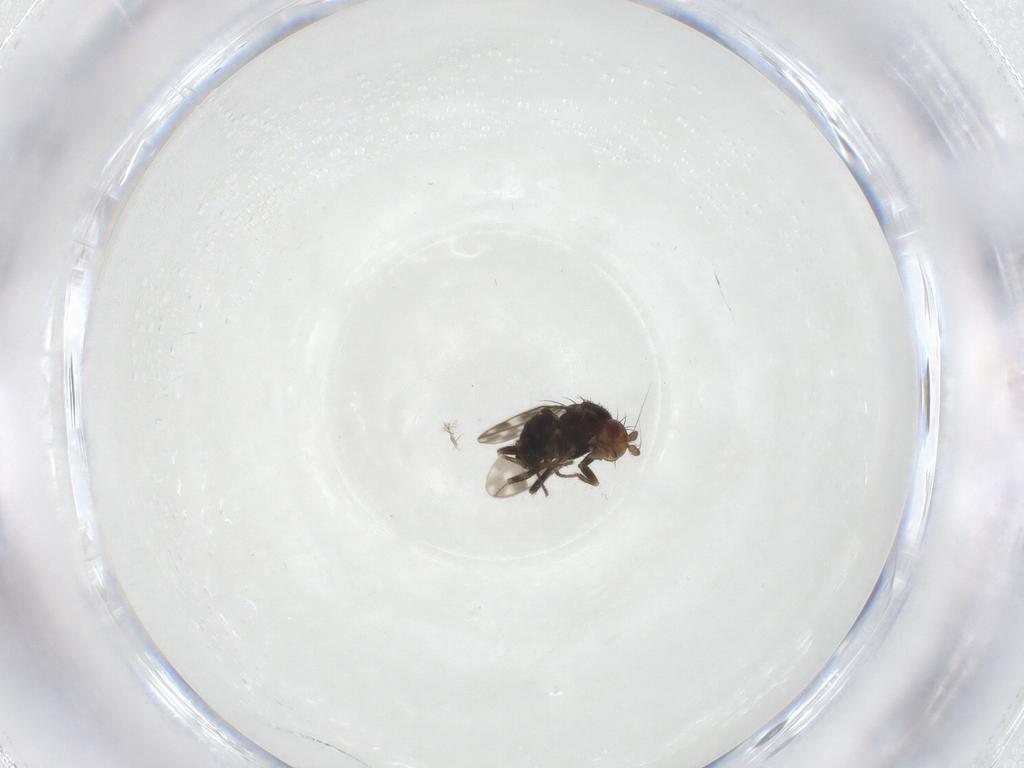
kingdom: Animalia
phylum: Arthropoda
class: Insecta
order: Diptera
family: Sphaeroceridae
